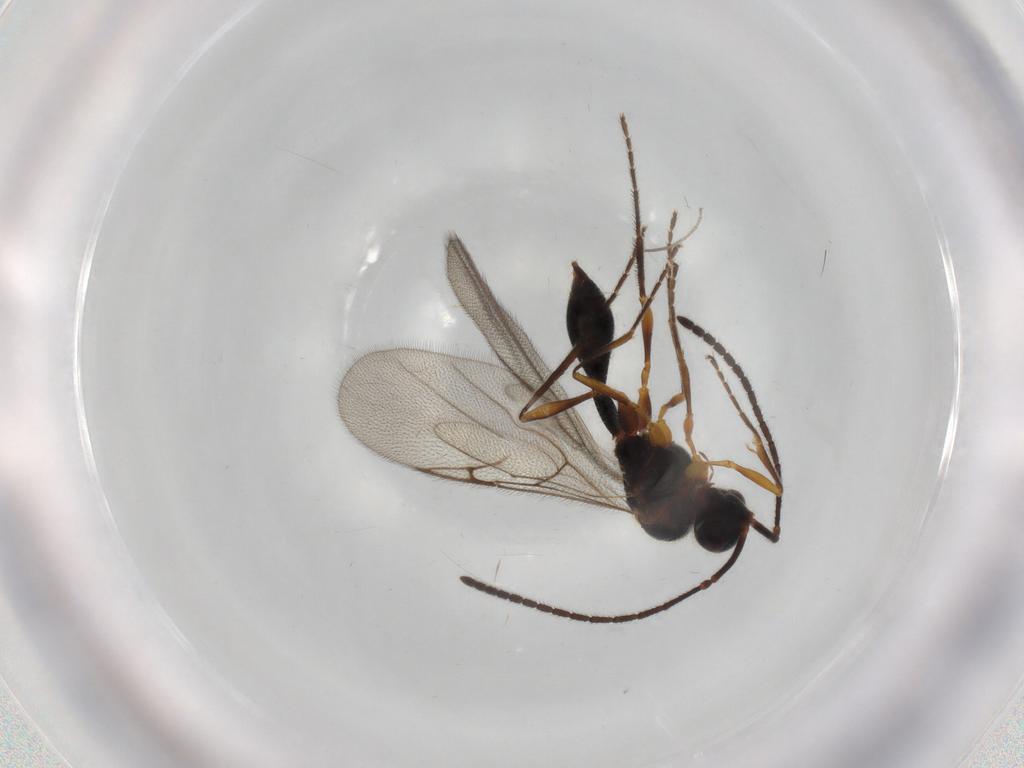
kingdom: Animalia
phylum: Arthropoda
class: Insecta
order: Hymenoptera
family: Diapriidae
